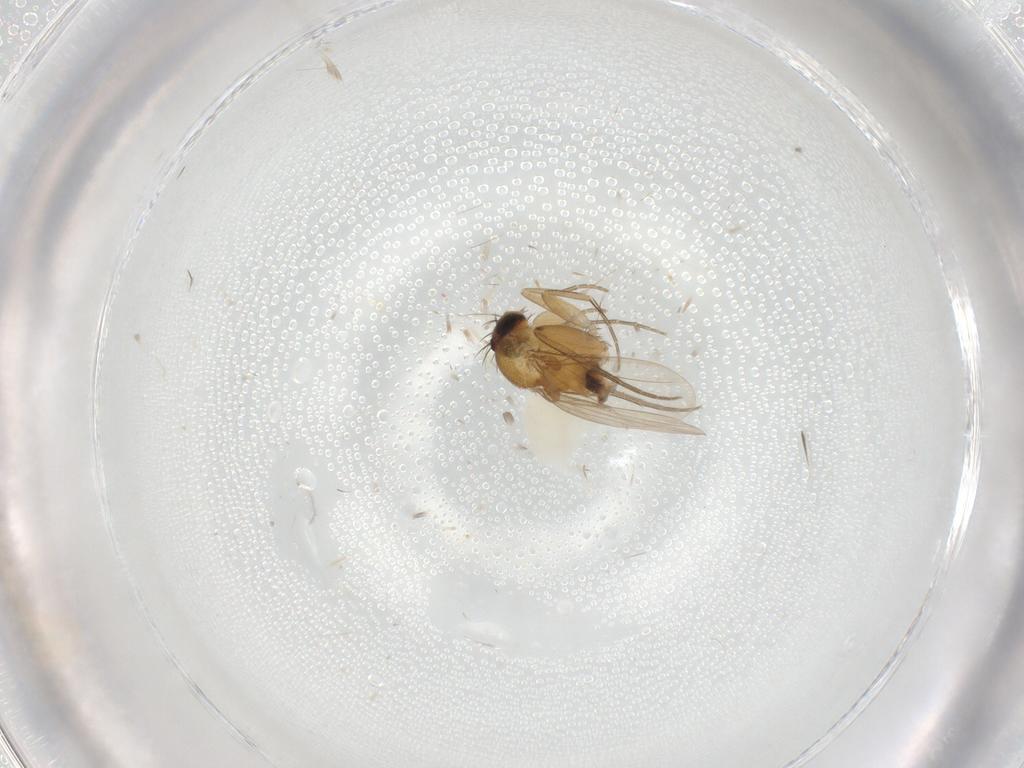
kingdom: Animalia
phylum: Arthropoda
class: Insecta
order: Diptera
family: Phoridae
